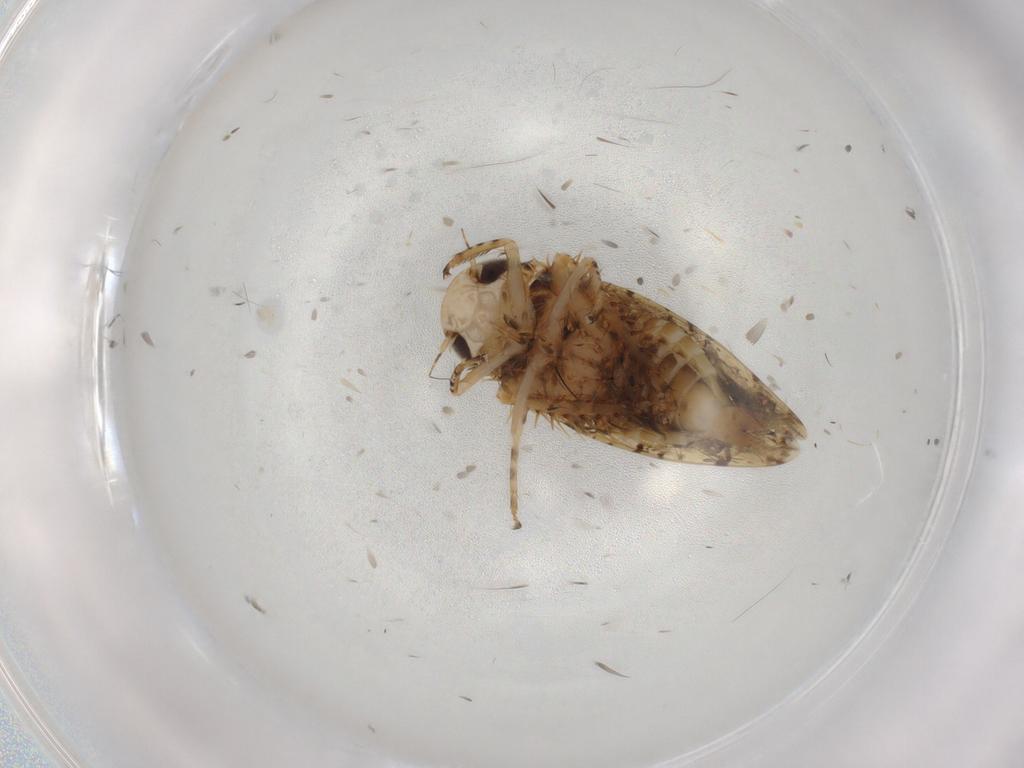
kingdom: Animalia
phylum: Arthropoda
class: Insecta
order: Hemiptera
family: Cicadellidae
